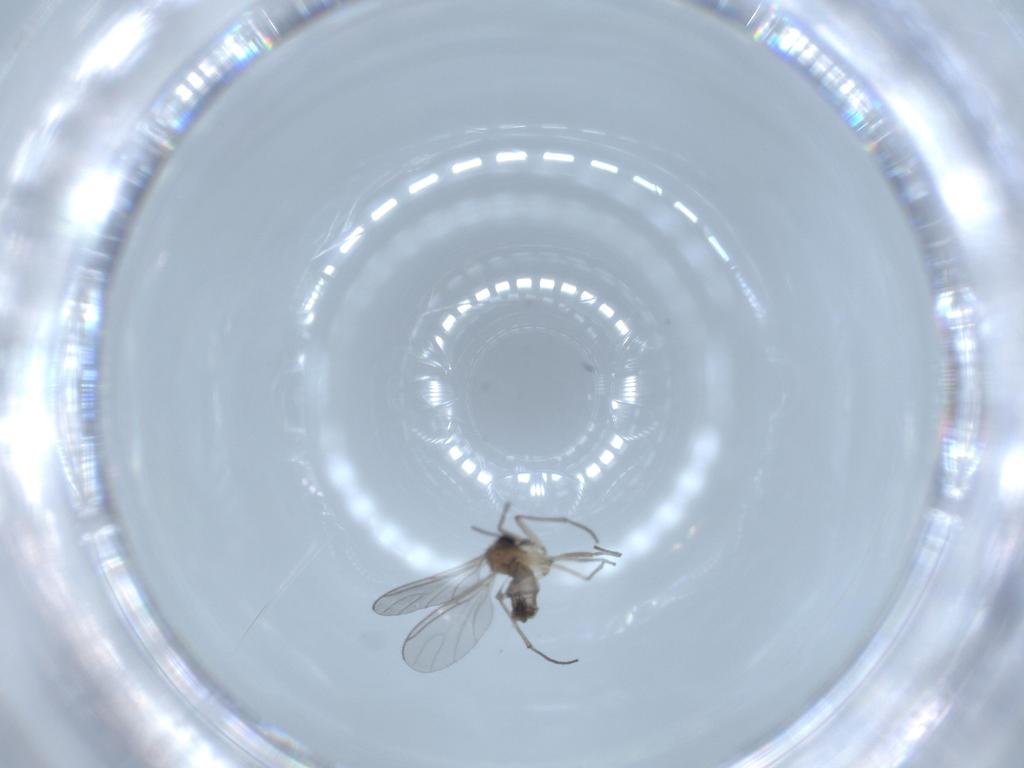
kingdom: Animalia
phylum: Arthropoda
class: Insecta
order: Diptera
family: Sciaridae
